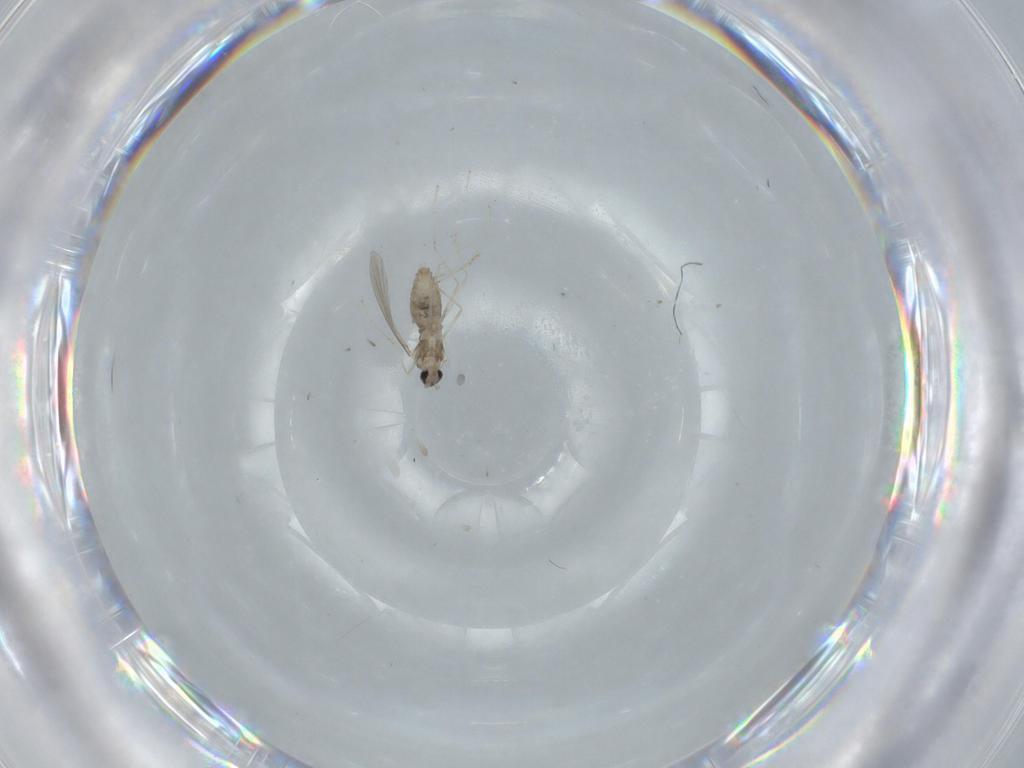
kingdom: Animalia
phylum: Arthropoda
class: Insecta
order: Diptera
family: Cecidomyiidae
